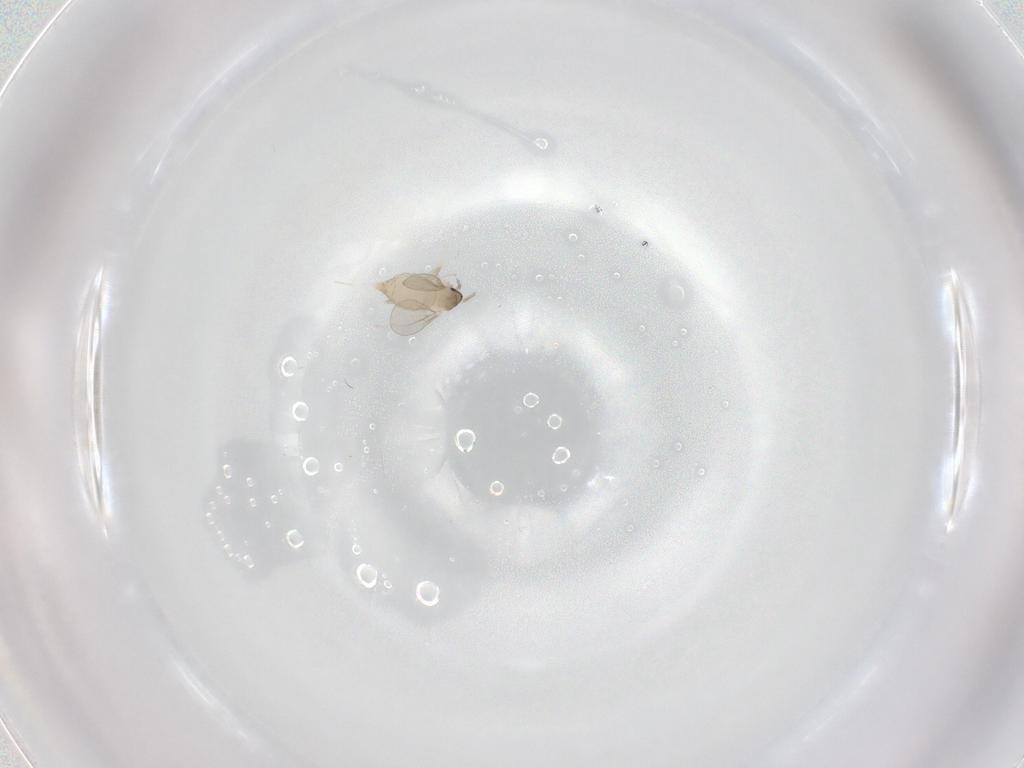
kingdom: Animalia
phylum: Arthropoda
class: Insecta
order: Diptera
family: Cecidomyiidae
